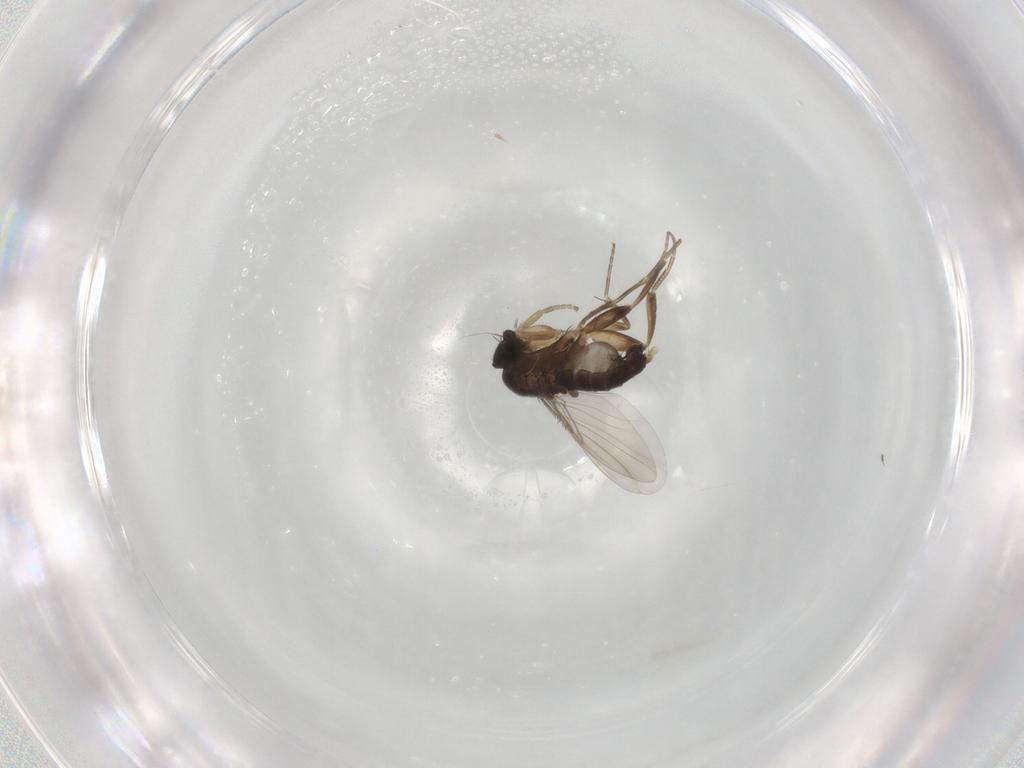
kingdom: Animalia
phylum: Arthropoda
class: Insecta
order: Diptera
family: Phoridae
